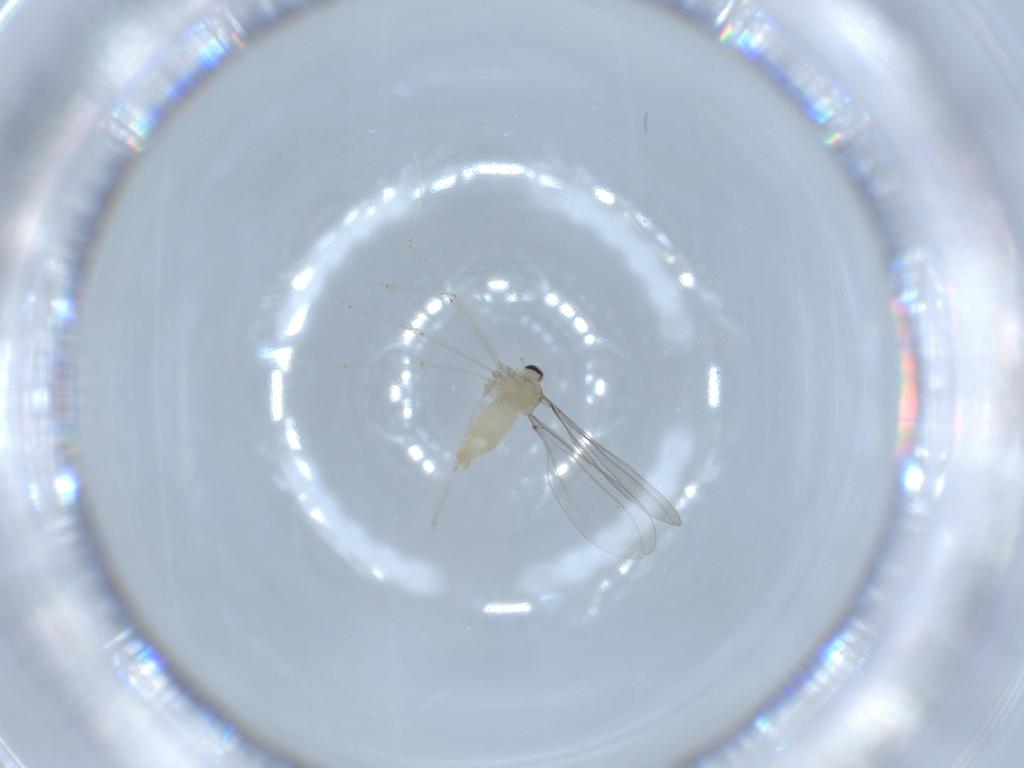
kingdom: Animalia
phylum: Arthropoda
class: Insecta
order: Diptera
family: Cecidomyiidae
